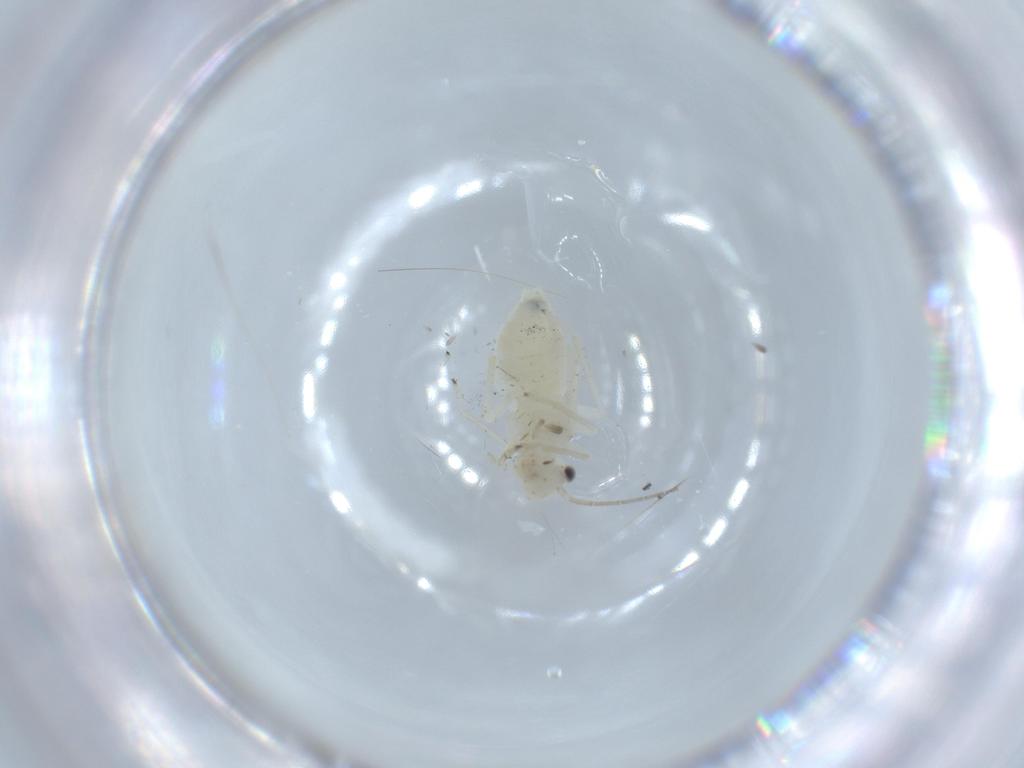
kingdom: Animalia
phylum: Arthropoda
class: Insecta
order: Psocodea
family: Caeciliusidae
